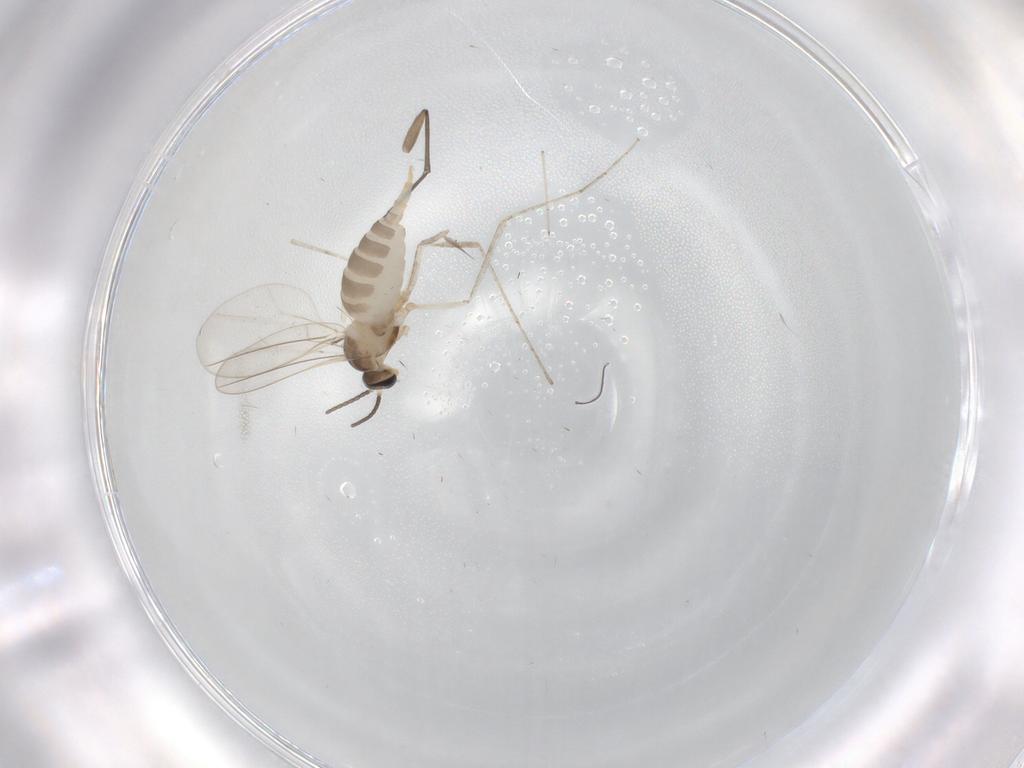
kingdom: Animalia
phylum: Arthropoda
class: Insecta
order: Diptera
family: Cecidomyiidae
